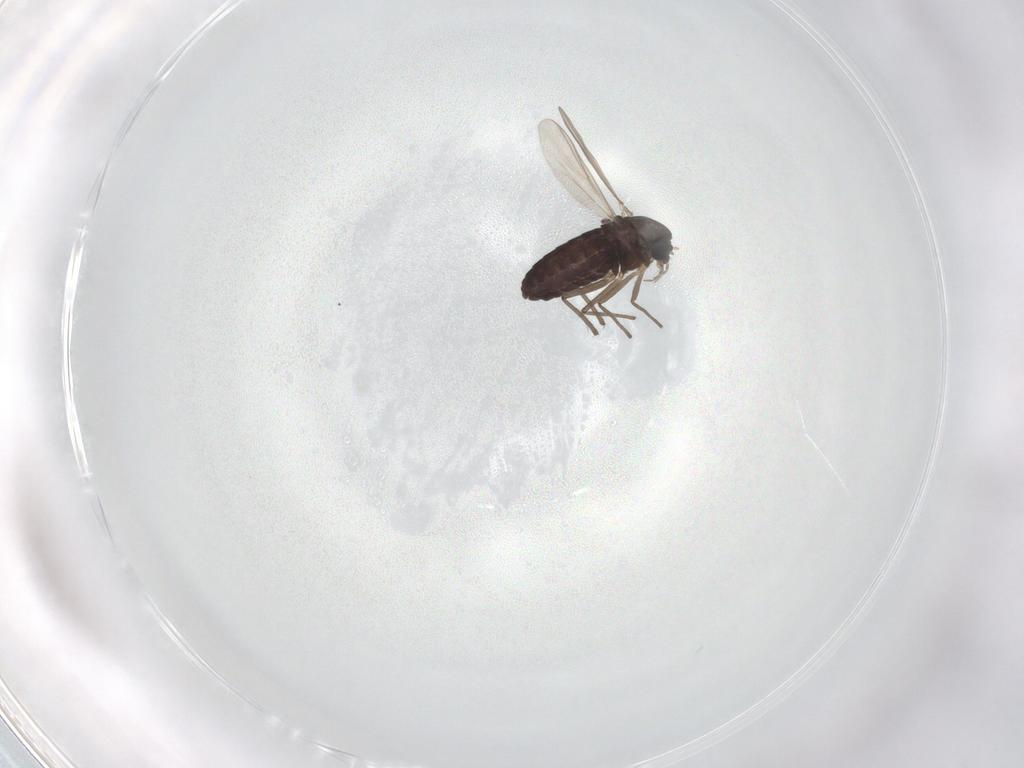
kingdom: Animalia
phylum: Arthropoda
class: Insecta
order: Diptera
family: Chironomidae
